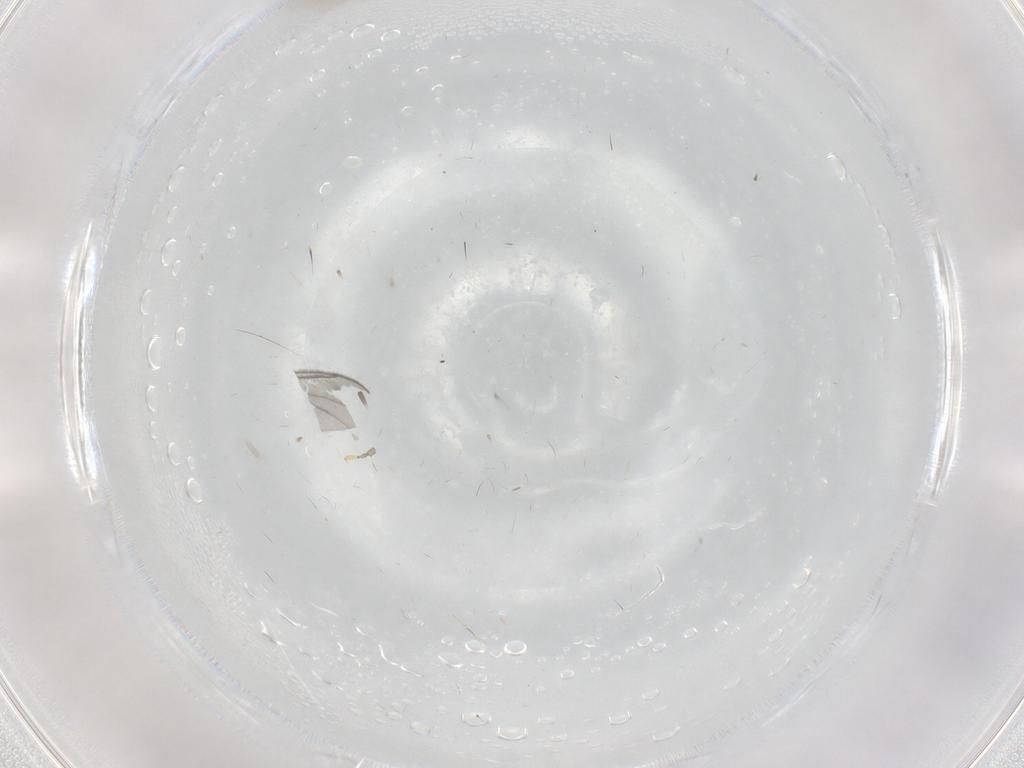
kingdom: Animalia
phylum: Arthropoda
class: Insecta
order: Diptera
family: Cecidomyiidae
